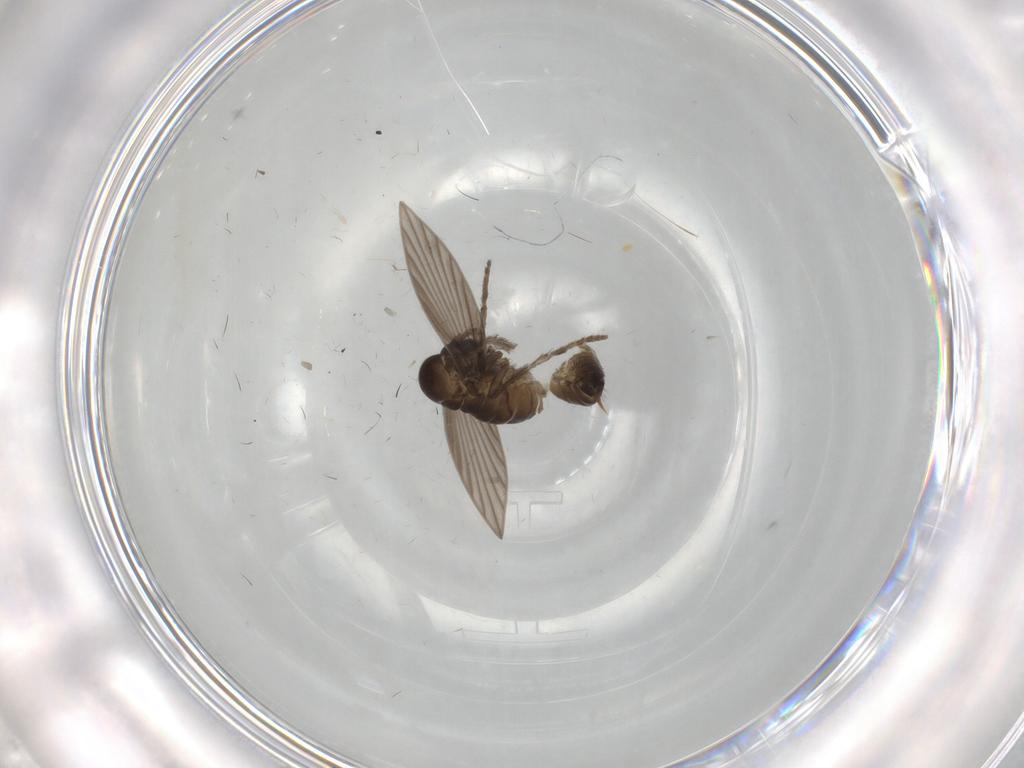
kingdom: Animalia
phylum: Arthropoda
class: Insecta
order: Diptera
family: Psychodidae
